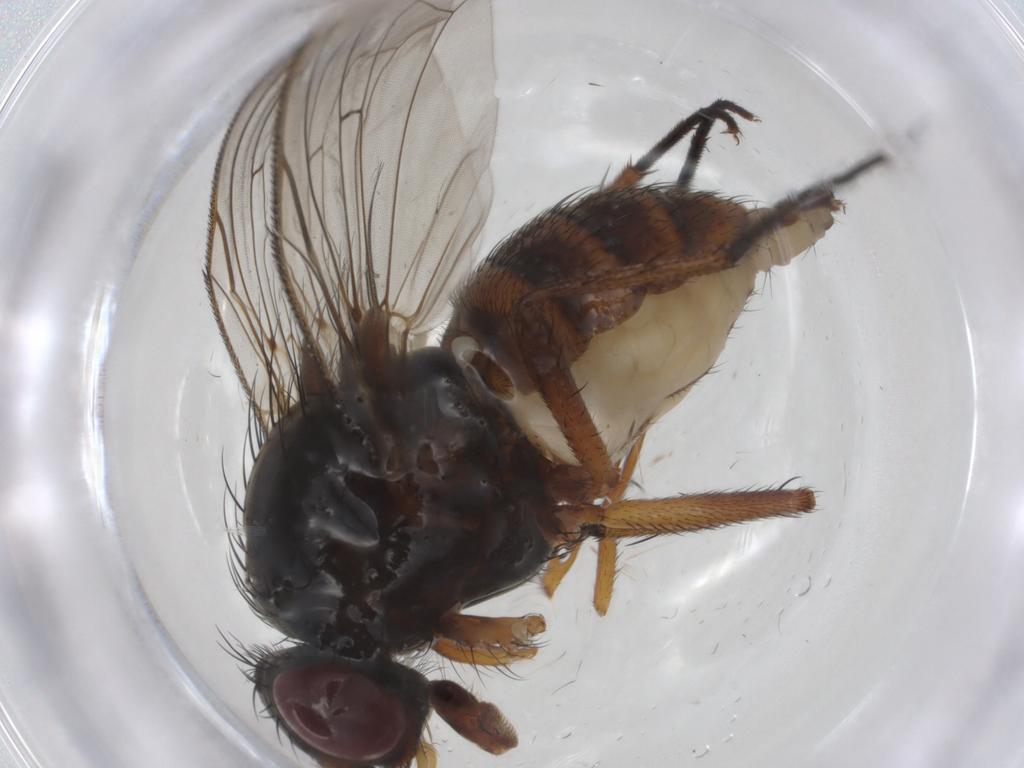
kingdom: Animalia
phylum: Arthropoda
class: Insecta
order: Diptera
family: Anthomyiidae
